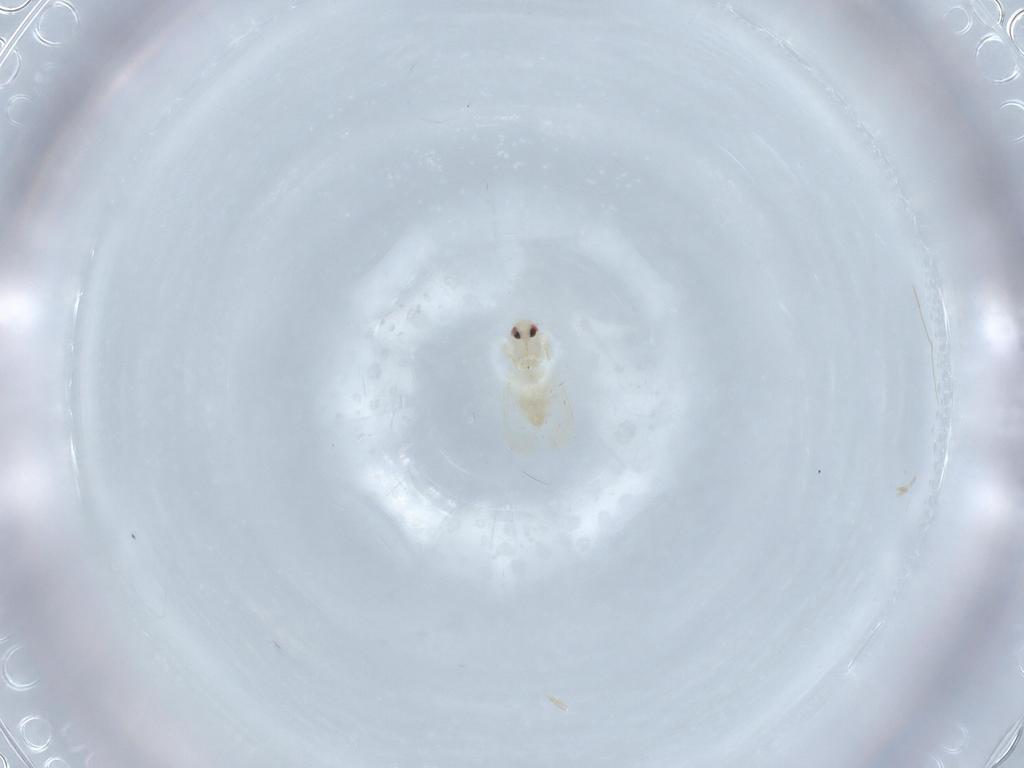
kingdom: Animalia
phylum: Arthropoda
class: Insecta
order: Hemiptera
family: Aleyrodidae
